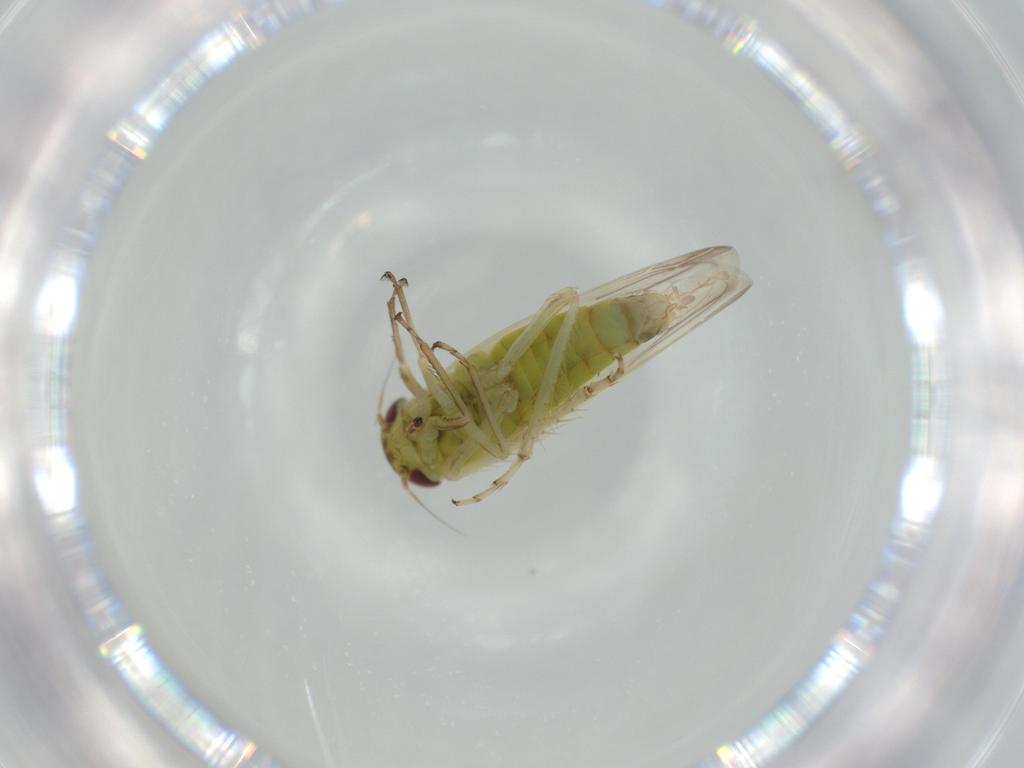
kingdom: Animalia
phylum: Arthropoda
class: Insecta
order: Hemiptera
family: Cicadellidae
